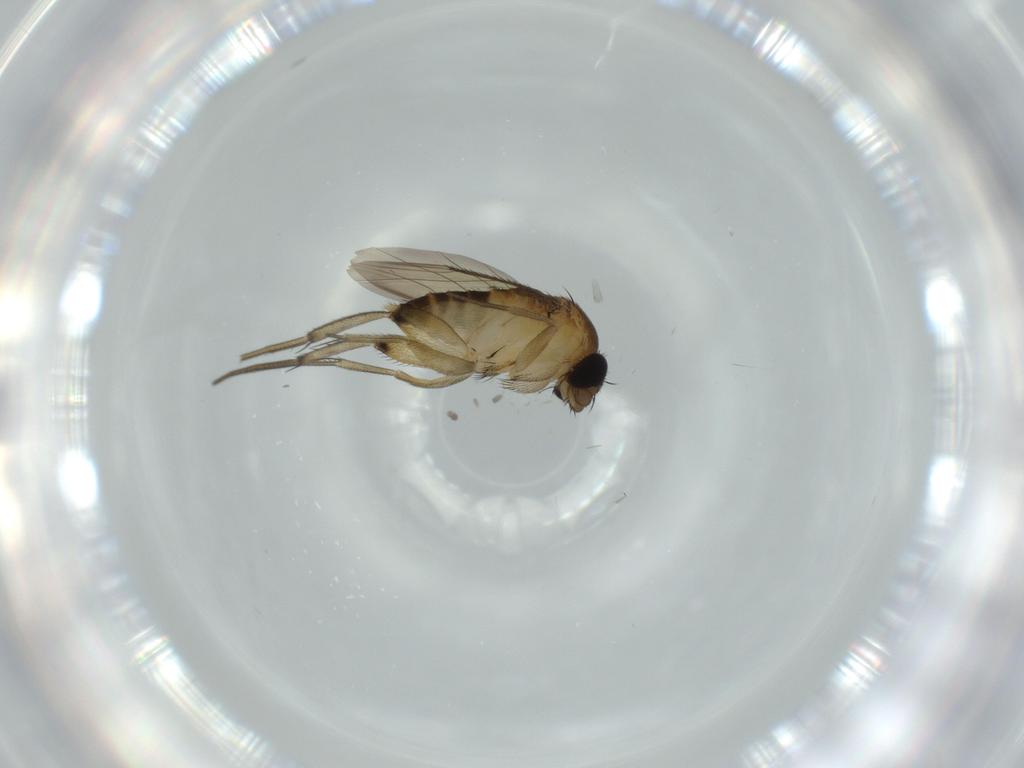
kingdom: Animalia
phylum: Arthropoda
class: Insecta
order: Diptera
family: Phoridae
